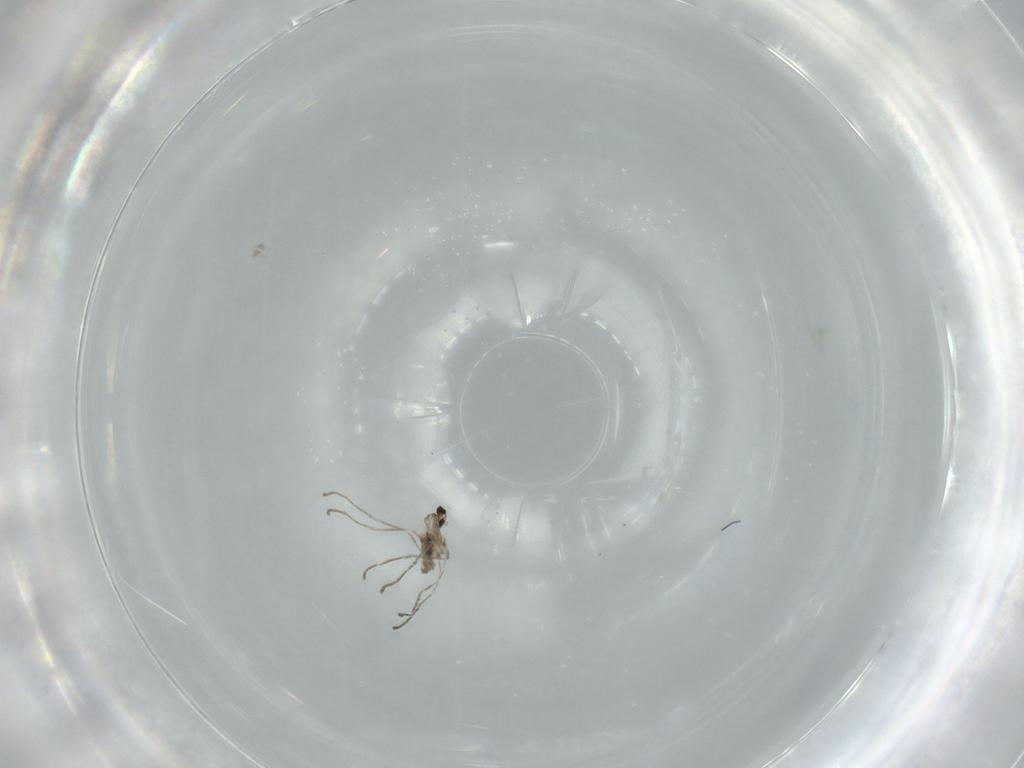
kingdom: Animalia
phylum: Arthropoda
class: Insecta
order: Diptera
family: Cecidomyiidae
